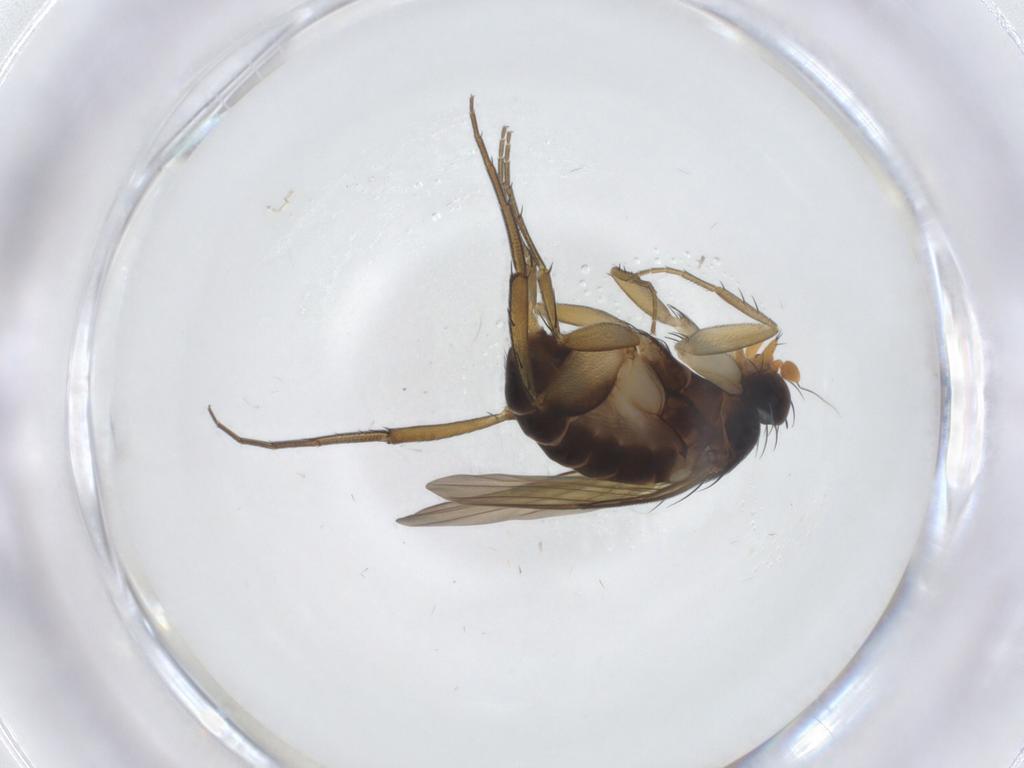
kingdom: Animalia
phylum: Arthropoda
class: Insecta
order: Diptera
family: Phoridae
